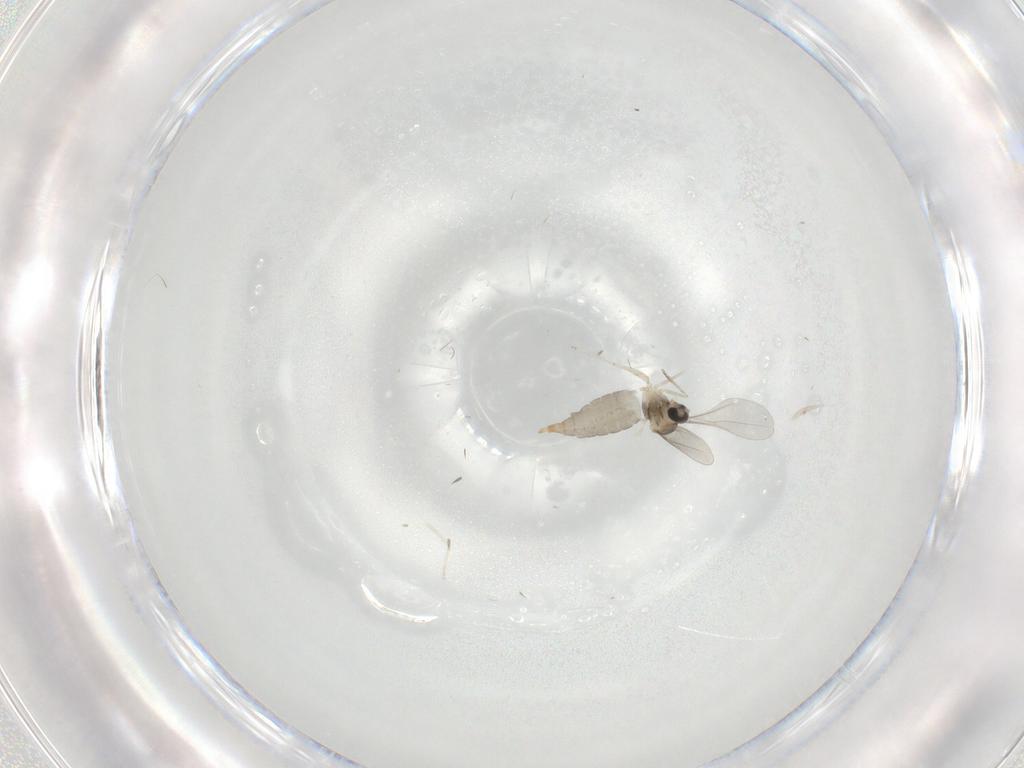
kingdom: Animalia
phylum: Arthropoda
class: Insecta
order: Diptera
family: Cecidomyiidae
